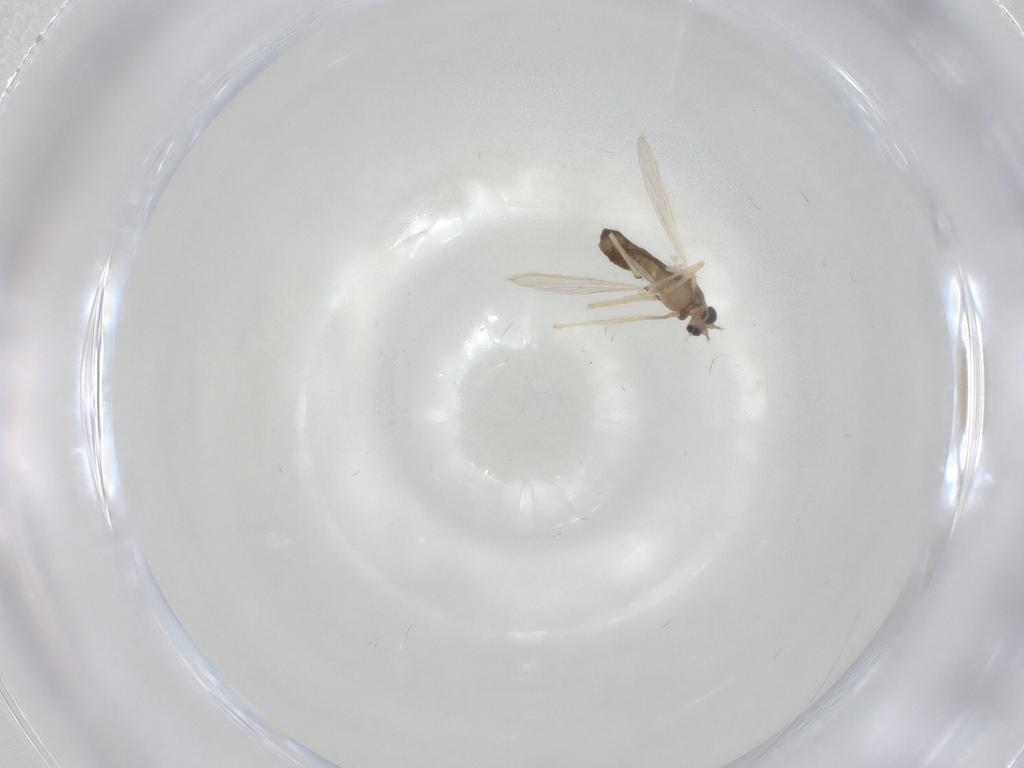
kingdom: Animalia
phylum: Arthropoda
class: Insecta
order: Diptera
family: Chironomidae
